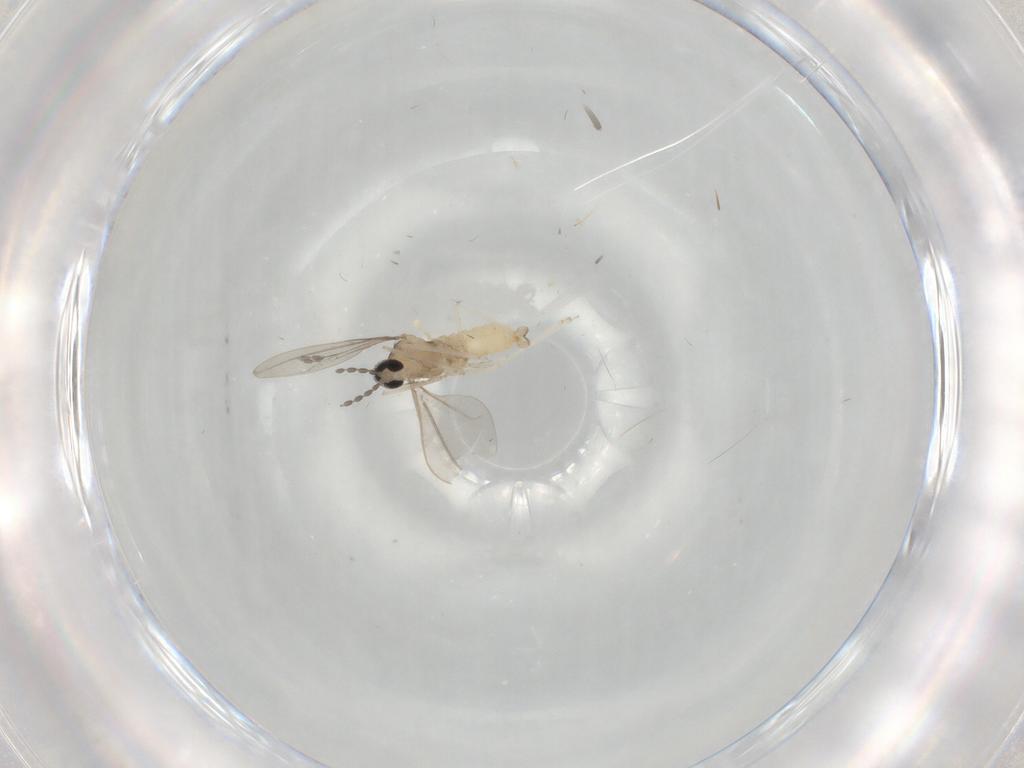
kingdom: Animalia
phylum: Arthropoda
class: Insecta
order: Diptera
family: Cecidomyiidae
